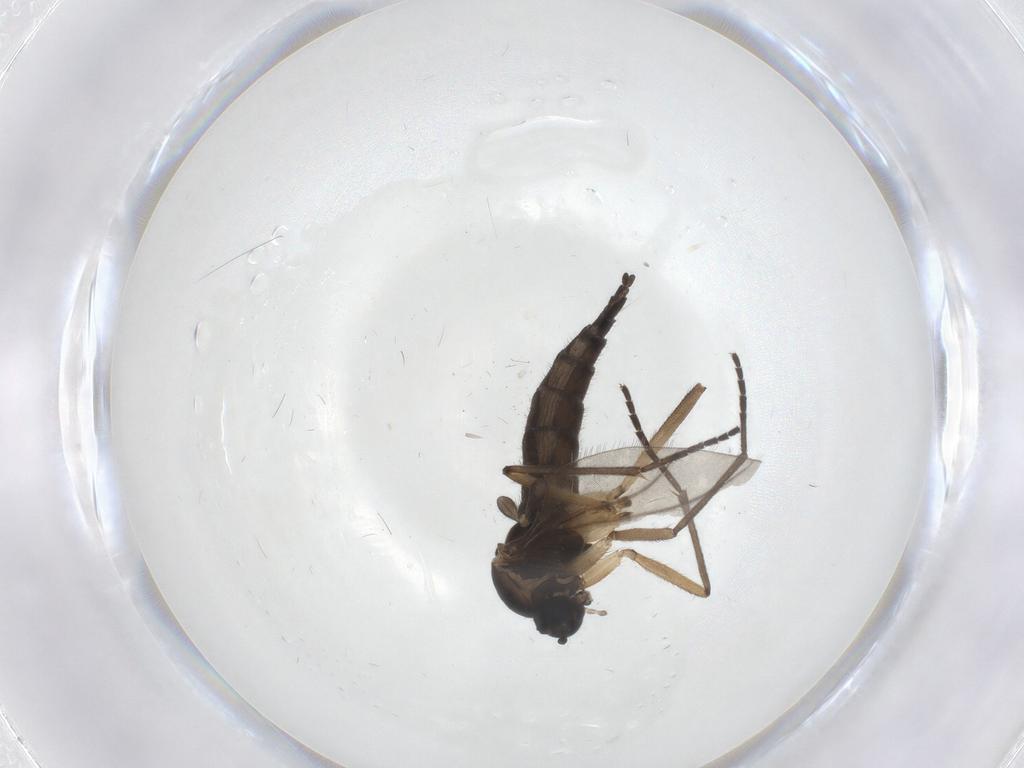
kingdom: Animalia
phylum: Arthropoda
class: Insecta
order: Diptera
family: Sciaridae
